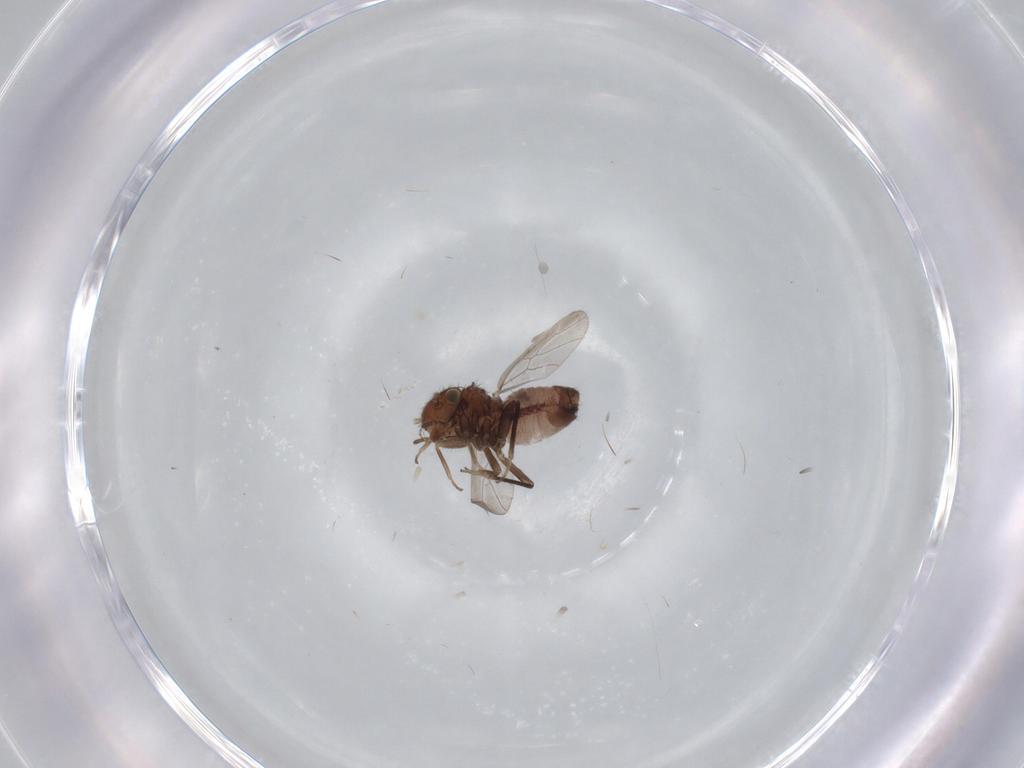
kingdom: Animalia
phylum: Arthropoda
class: Insecta
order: Psocodea
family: Ectopsocidae
